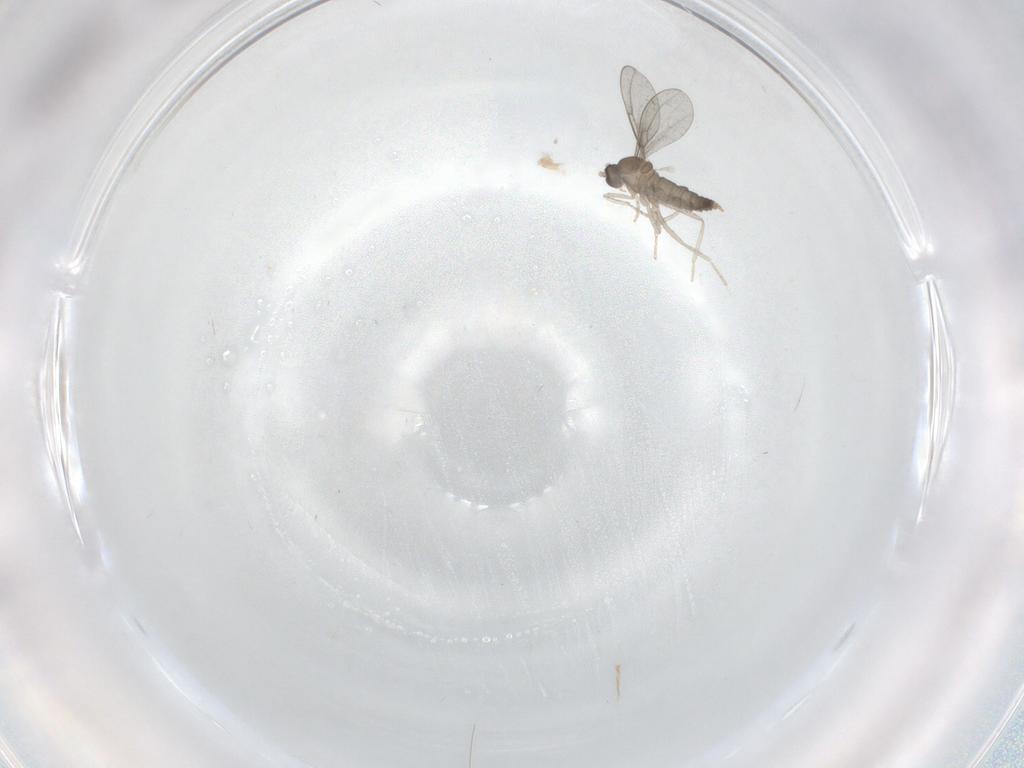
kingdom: Animalia
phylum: Arthropoda
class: Insecta
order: Diptera
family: Cecidomyiidae
